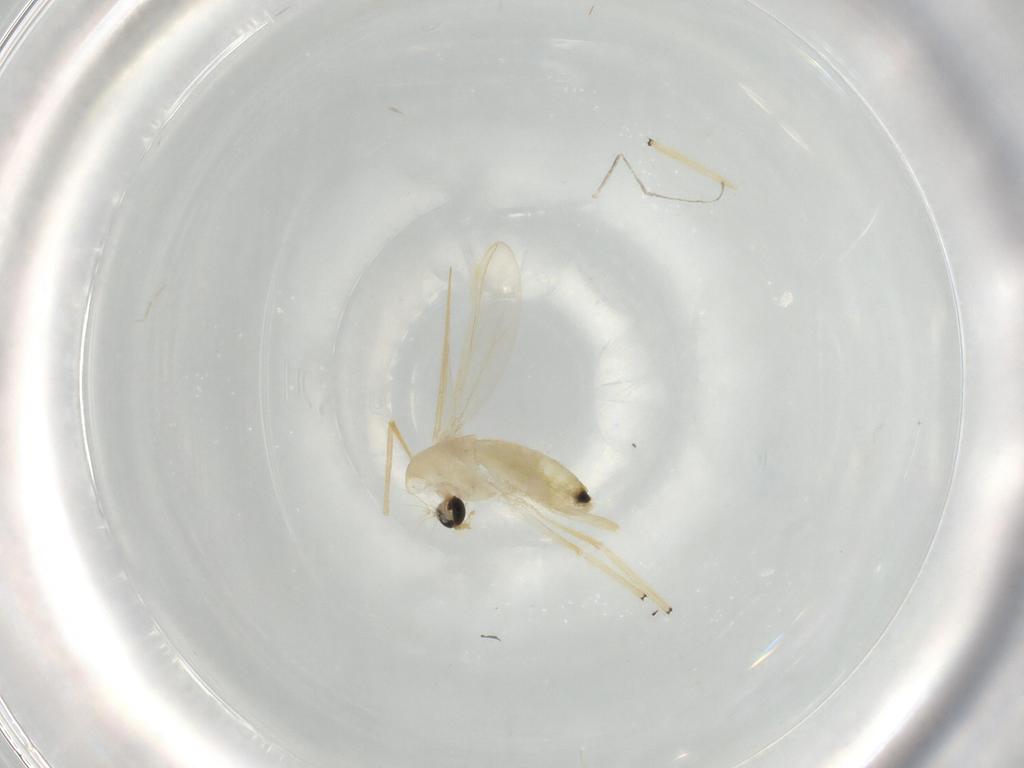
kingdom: Animalia
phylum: Arthropoda
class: Insecta
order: Diptera
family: Chironomidae
